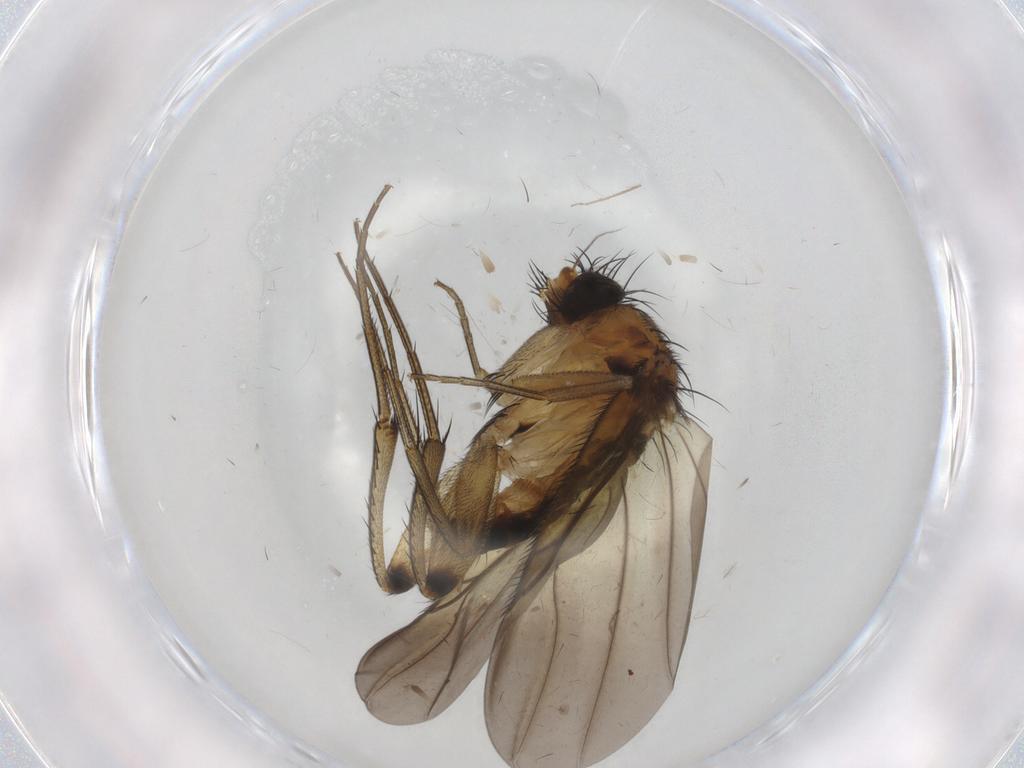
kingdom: Animalia
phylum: Arthropoda
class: Insecta
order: Diptera
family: Phoridae
